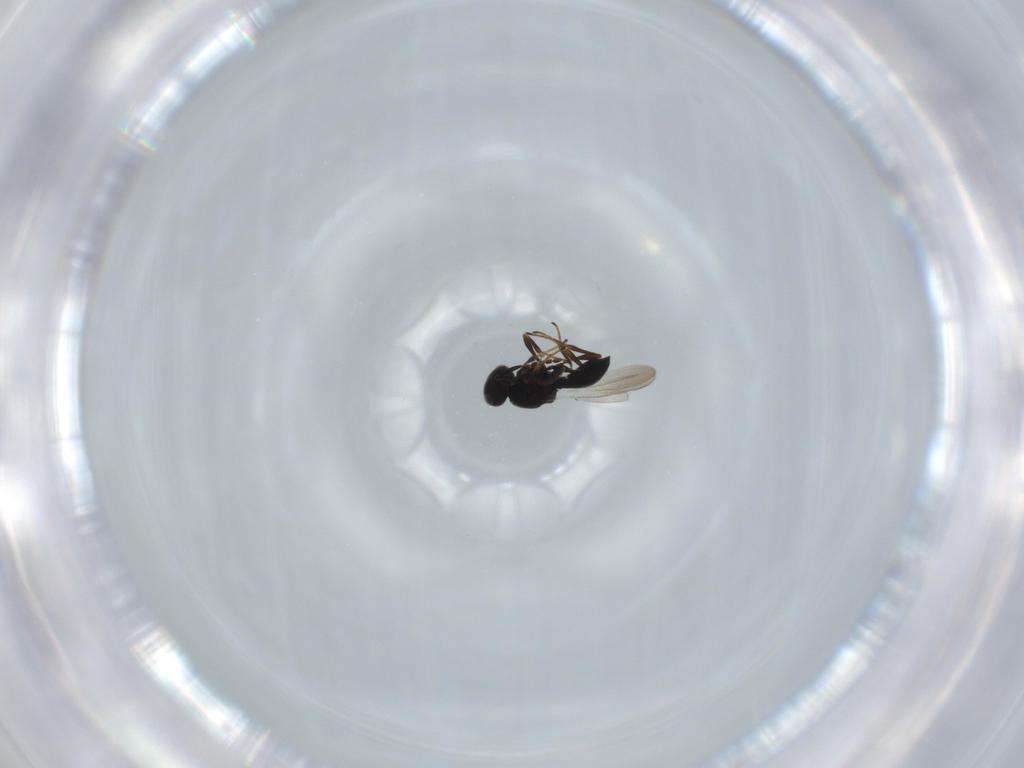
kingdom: Animalia
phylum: Arthropoda
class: Insecta
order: Hymenoptera
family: Platygastridae
